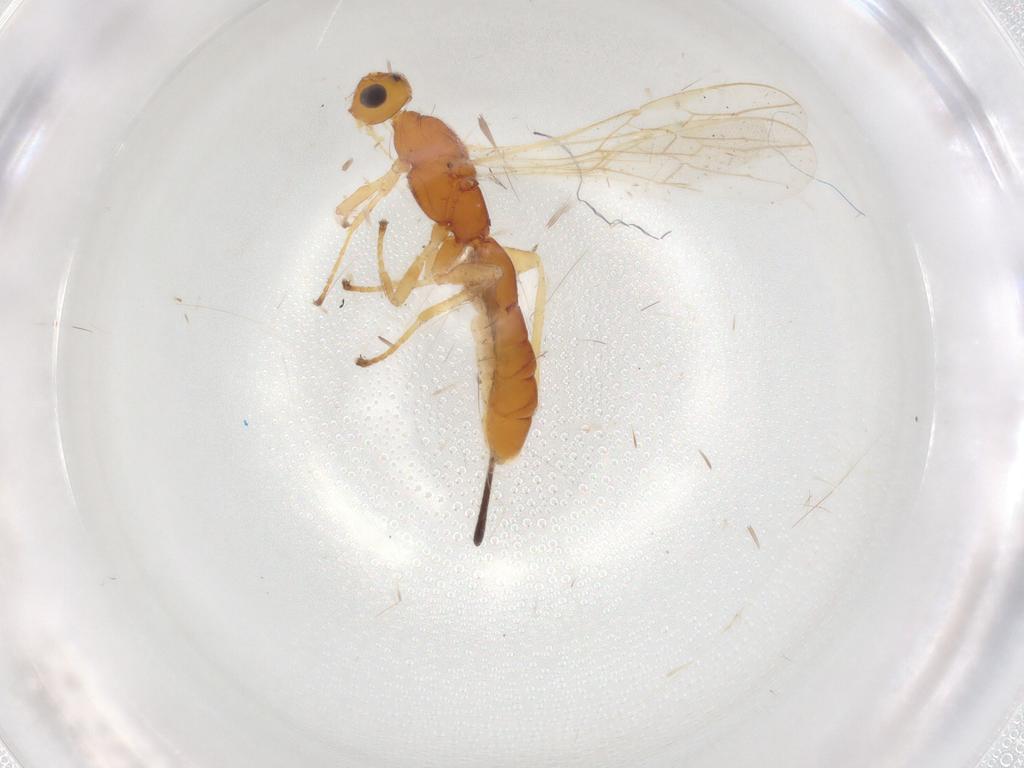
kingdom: Animalia
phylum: Arthropoda
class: Insecta
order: Hymenoptera
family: Braconidae
